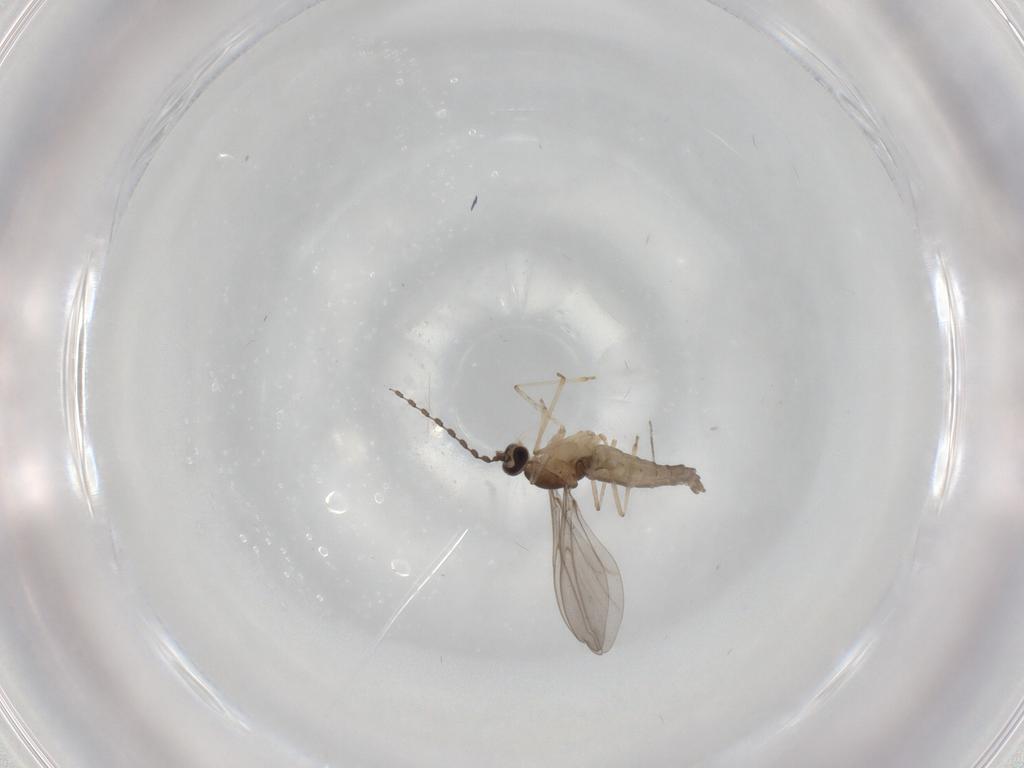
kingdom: Animalia
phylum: Arthropoda
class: Insecta
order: Diptera
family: Cecidomyiidae
